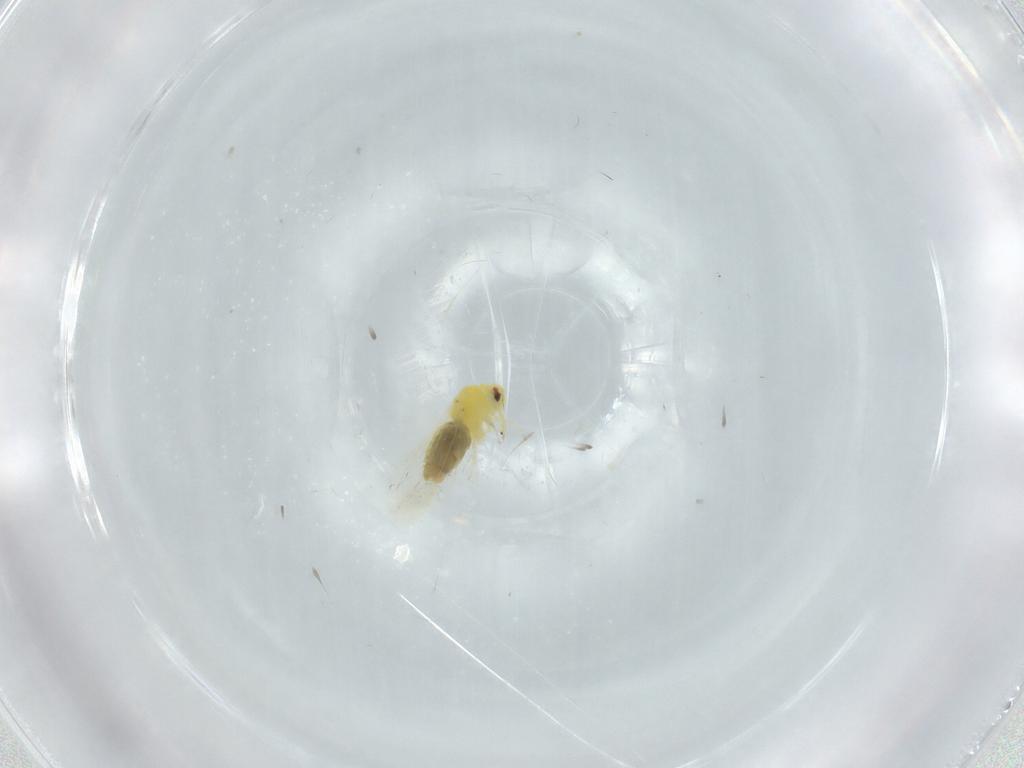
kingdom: Animalia
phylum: Arthropoda
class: Insecta
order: Hemiptera
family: Aleyrodidae
